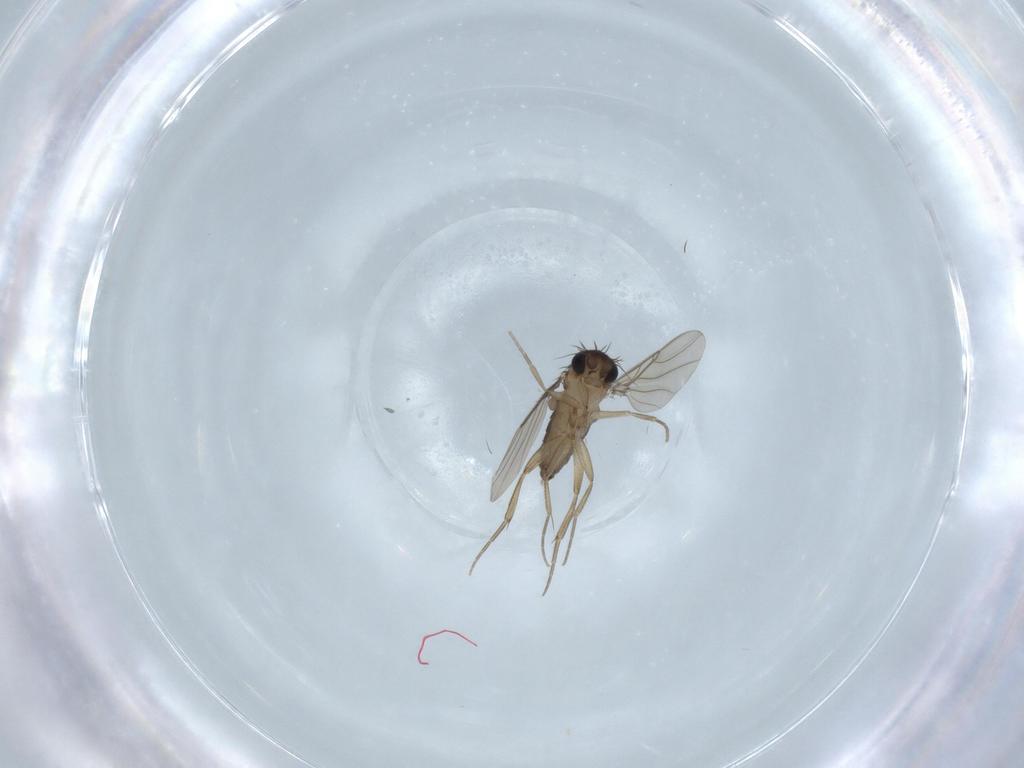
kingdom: Animalia
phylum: Arthropoda
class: Insecta
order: Diptera
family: Phoridae
